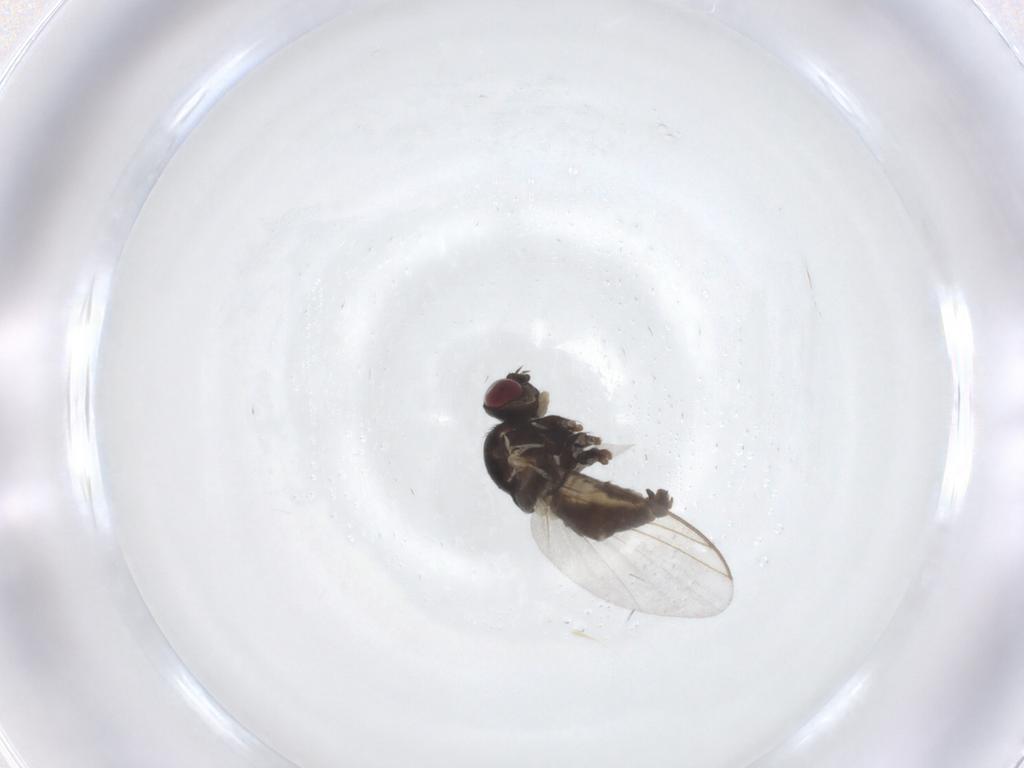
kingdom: Animalia
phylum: Arthropoda
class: Insecta
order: Diptera
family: Agromyzidae
